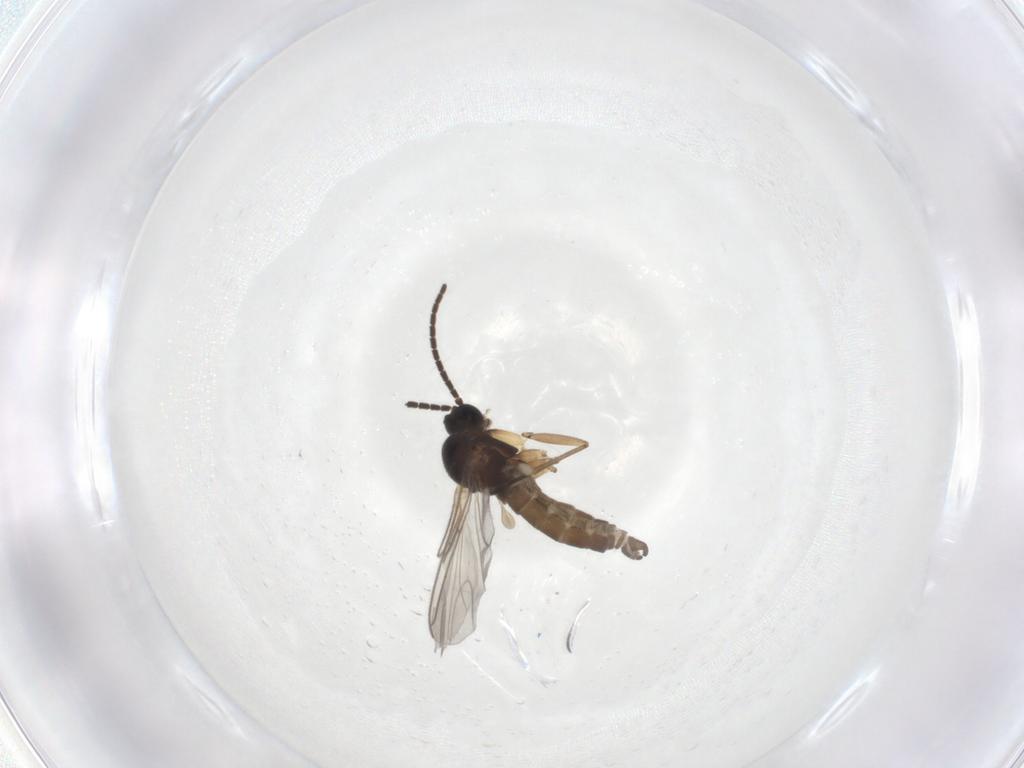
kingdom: Animalia
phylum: Arthropoda
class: Insecta
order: Diptera
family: Sciaridae
